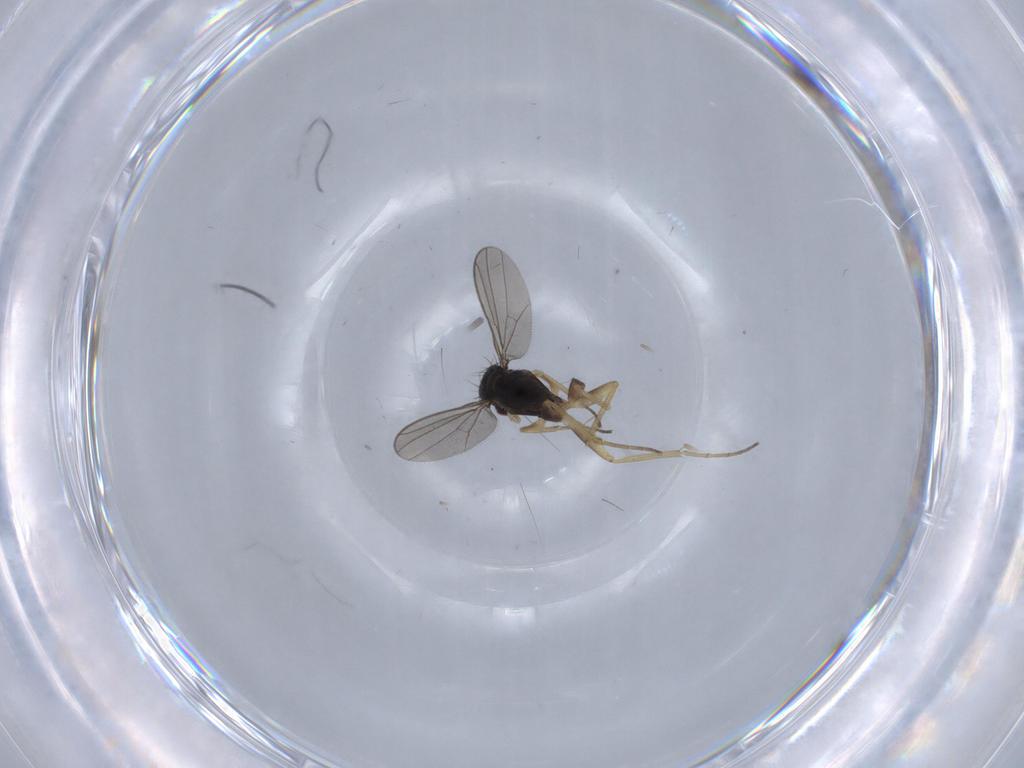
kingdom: Animalia
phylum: Arthropoda
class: Insecta
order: Diptera
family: Dolichopodidae
